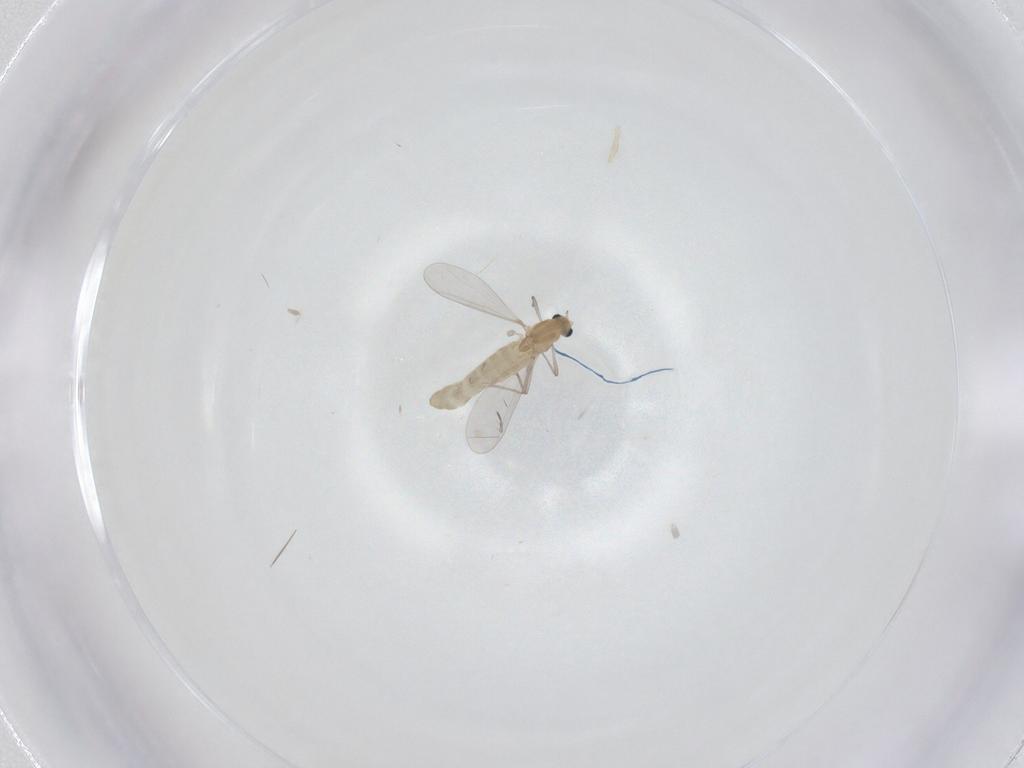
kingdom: Animalia
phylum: Arthropoda
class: Insecta
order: Diptera
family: Chironomidae
